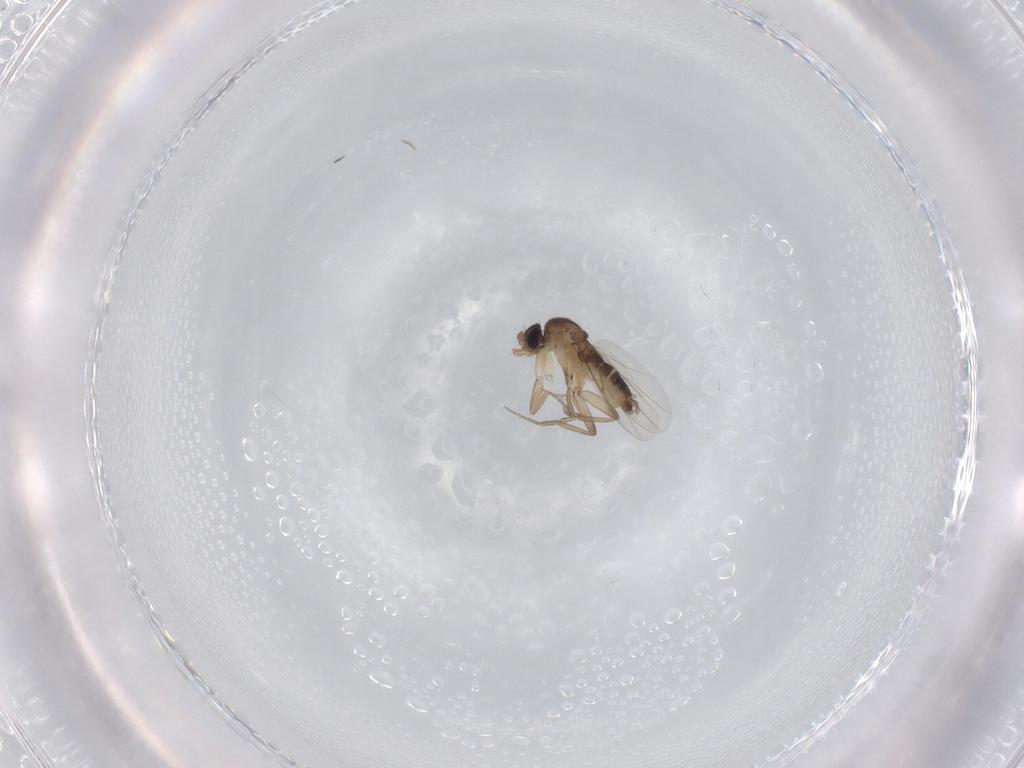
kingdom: Animalia
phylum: Arthropoda
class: Insecta
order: Diptera
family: Phoridae
